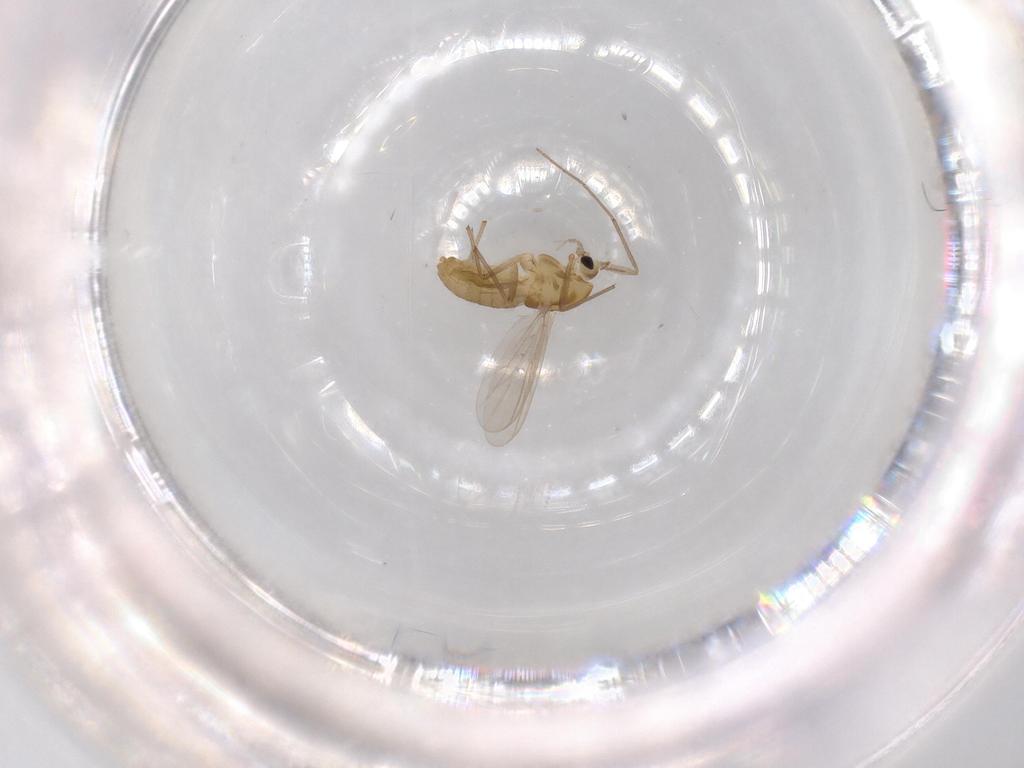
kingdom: Animalia
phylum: Arthropoda
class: Insecta
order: Diptera
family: Chironomidae
